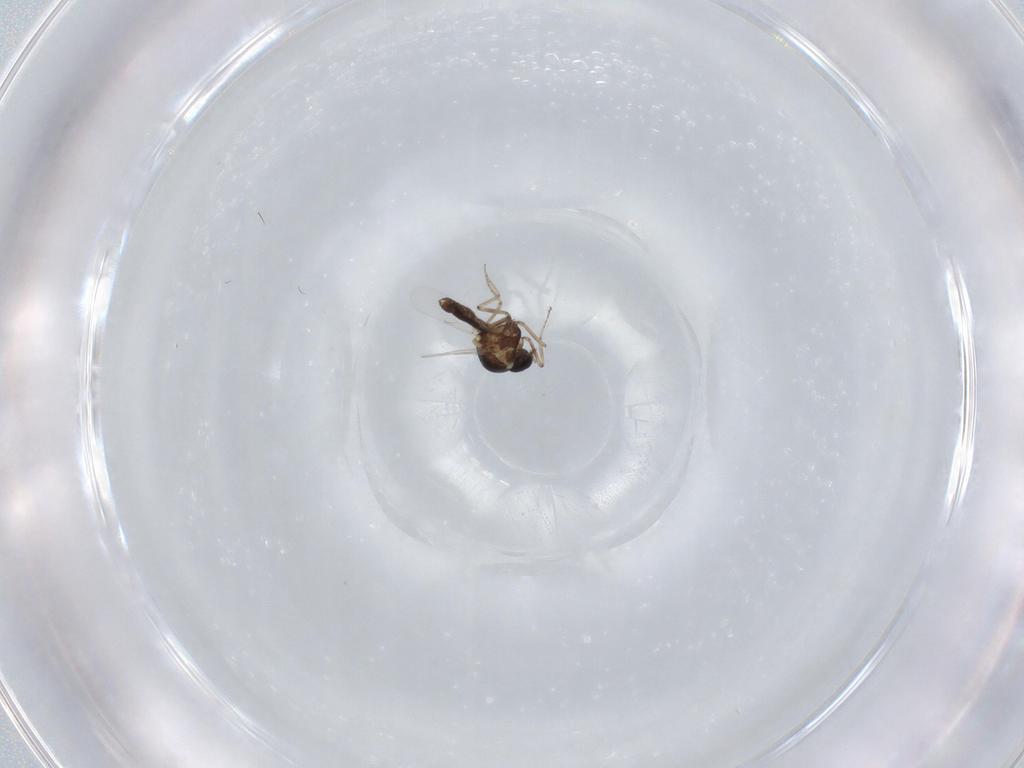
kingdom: Animalia
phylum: Arthropoda
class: Insecta
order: Diptera
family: Ceratopogonidae
